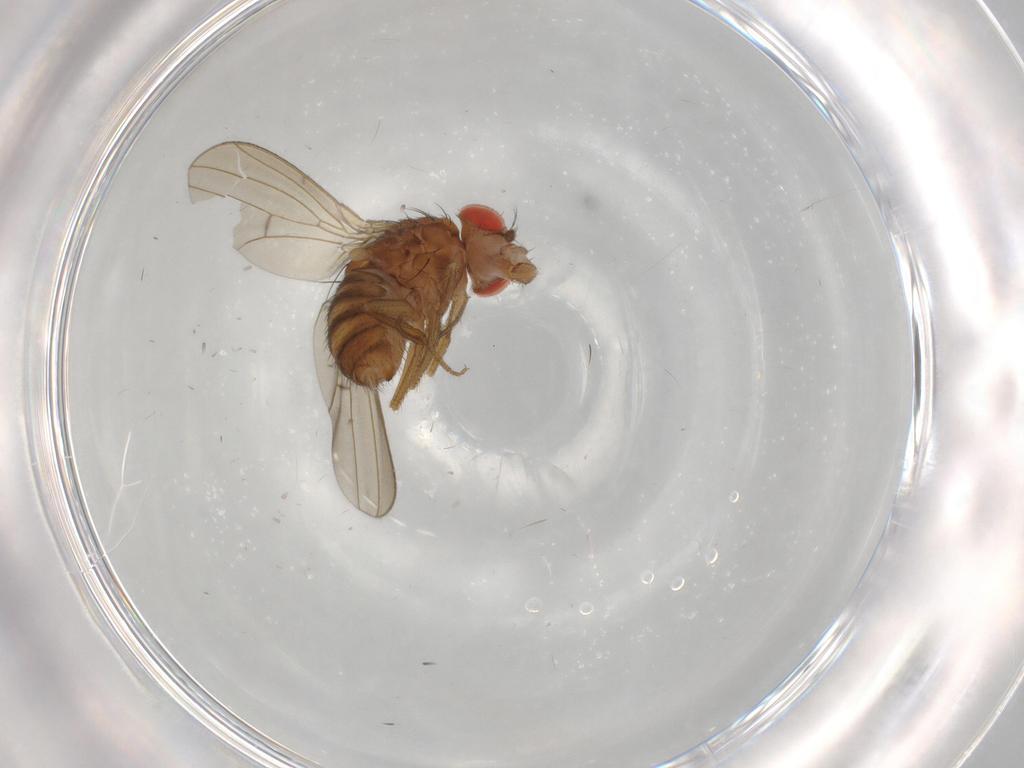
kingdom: Animalia
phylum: Arthropoda
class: Insecta
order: Diptera
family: Drosophilidae
